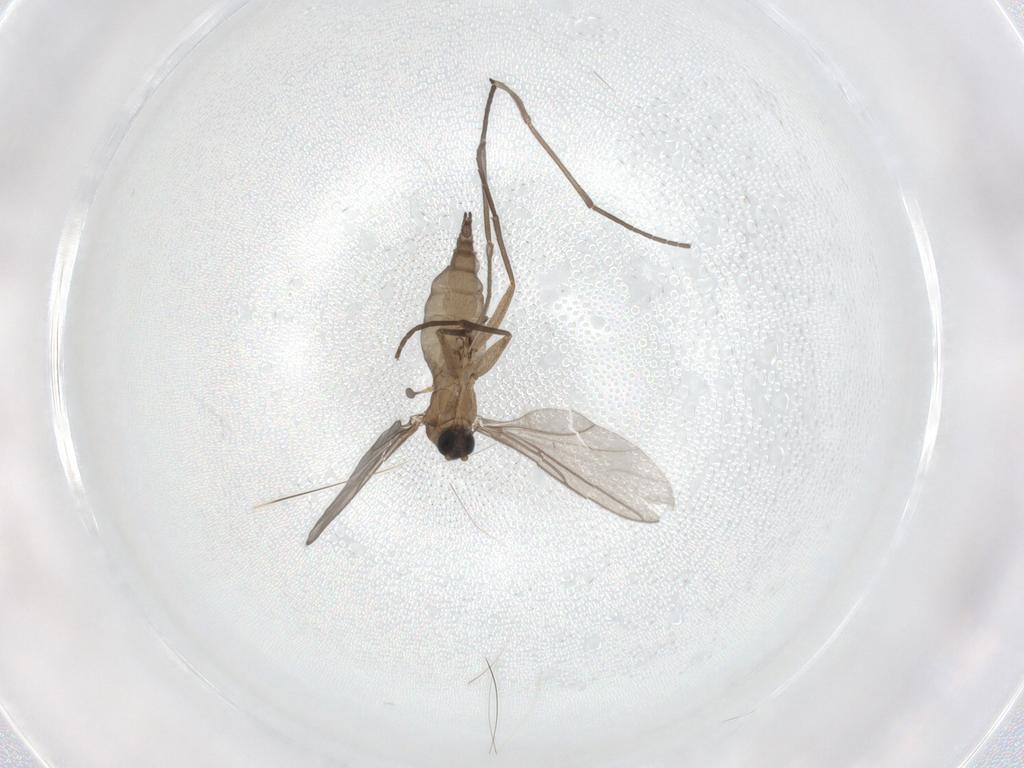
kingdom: Animalia
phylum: Arthropoda
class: Insecta
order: Diptera
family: Sciaridae
